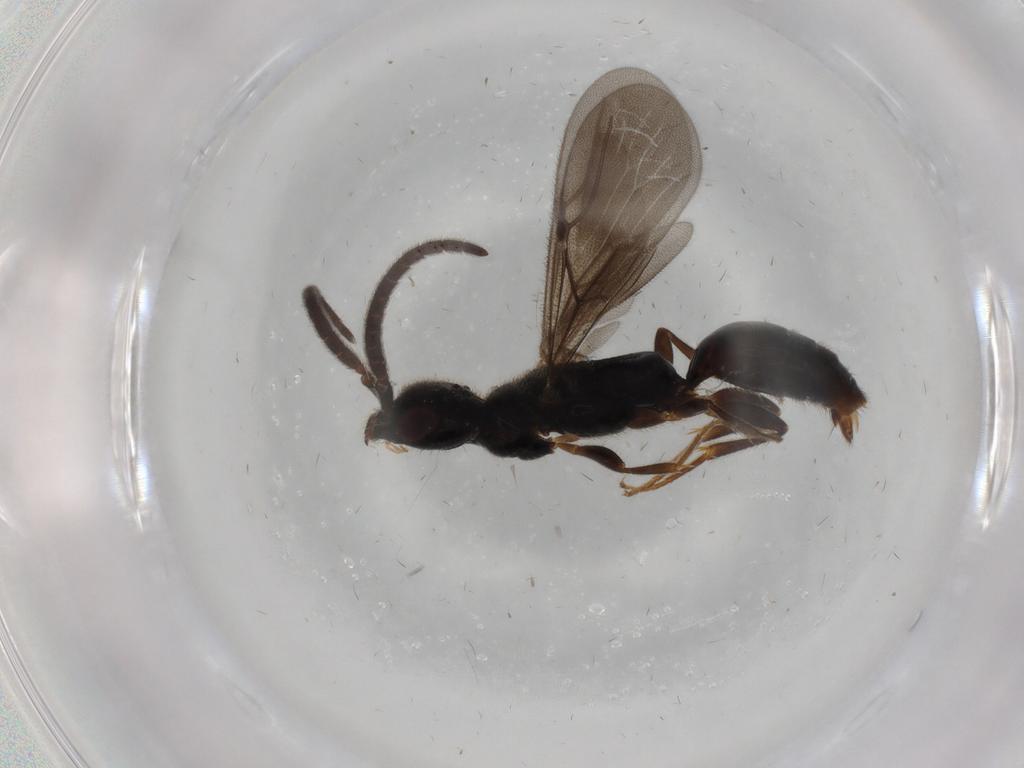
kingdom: Animalia
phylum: Arthropoda
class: Insecta
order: Hymenoptera
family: Bethylidae
